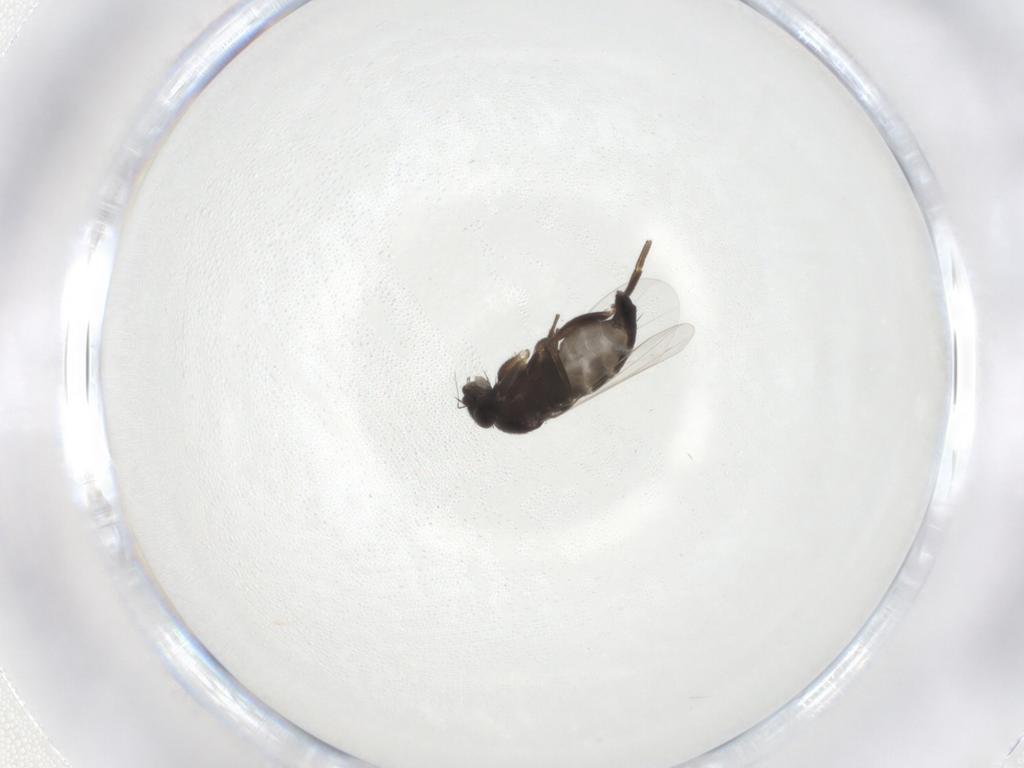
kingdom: Animalia
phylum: Arthropoda
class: Insecta
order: Diptera
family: Phoridae
